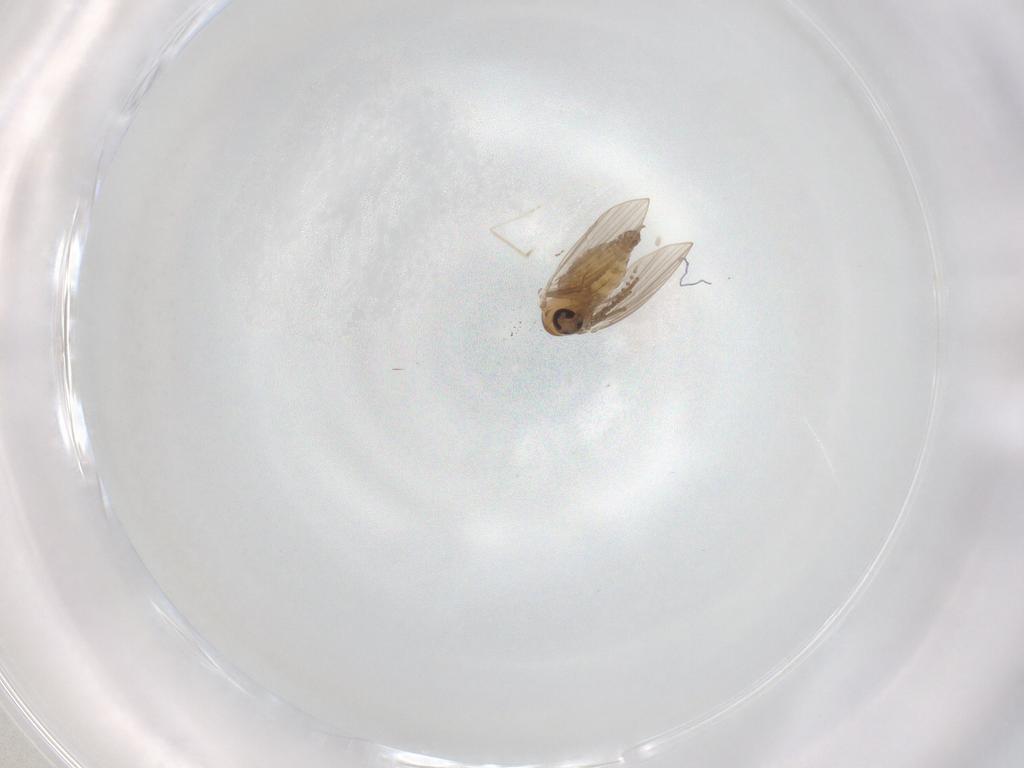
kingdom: Animalia
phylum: Arthropoda
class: Insecta
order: Diptera
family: Psychodidae
